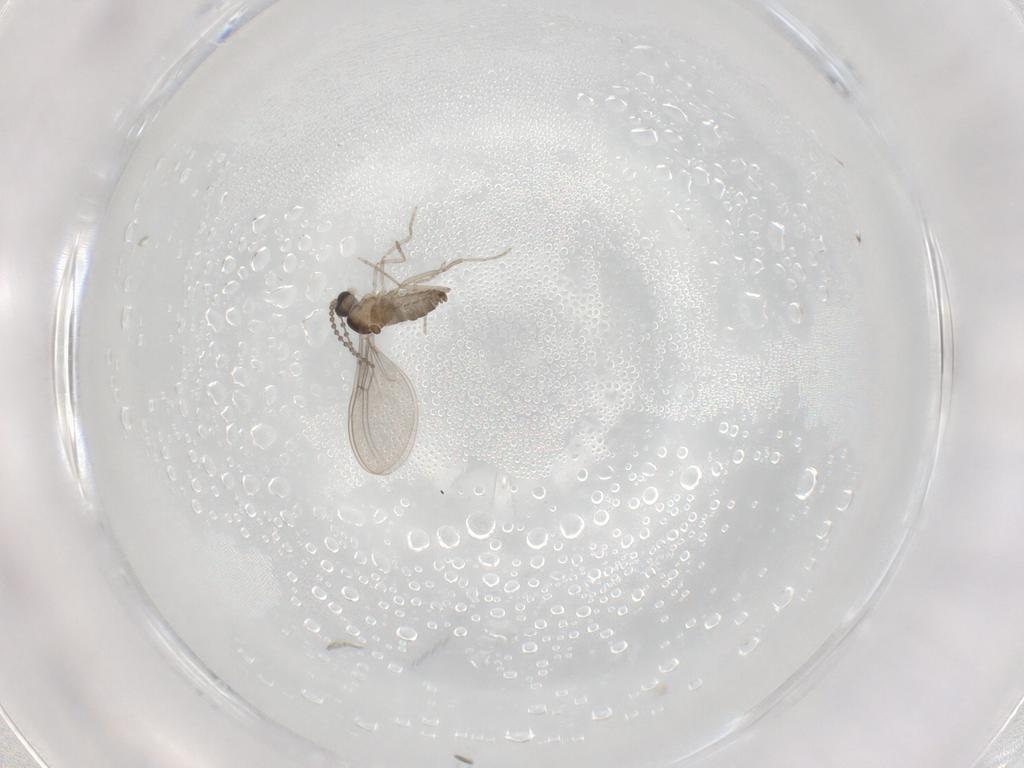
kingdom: Animalia
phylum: Arthropoda
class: Insecta
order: Diptera
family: Cecidomyiidae
